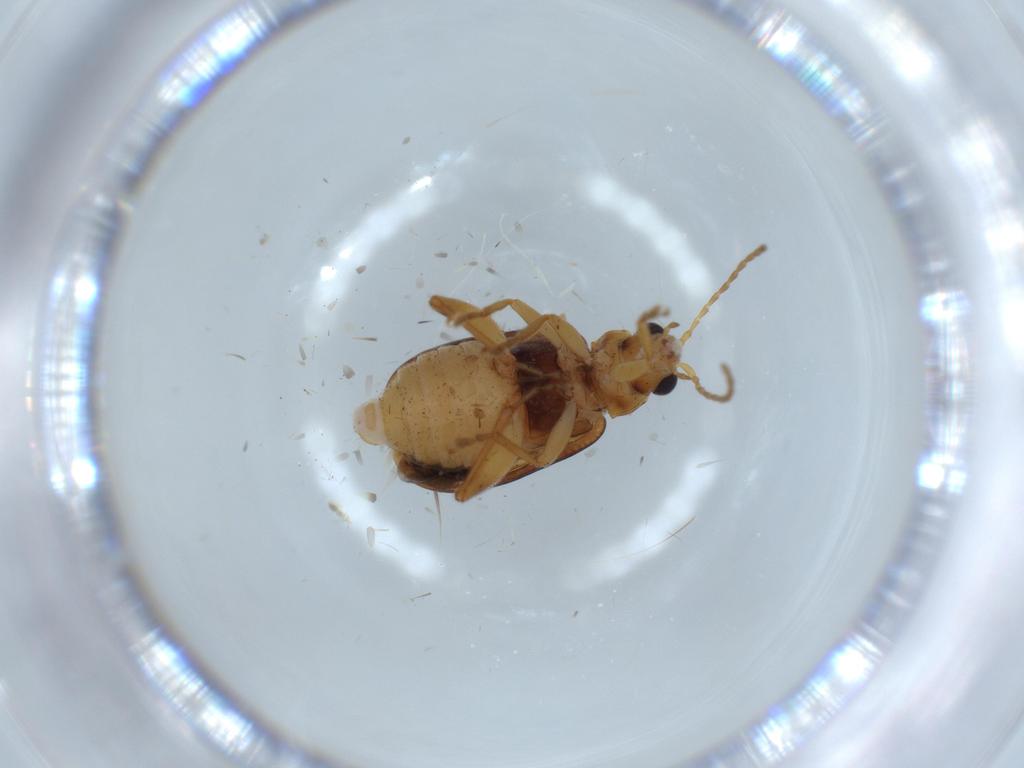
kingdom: Animalia
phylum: Arthropoda
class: Insecta
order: Coleoptera
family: Chrysomelidae
